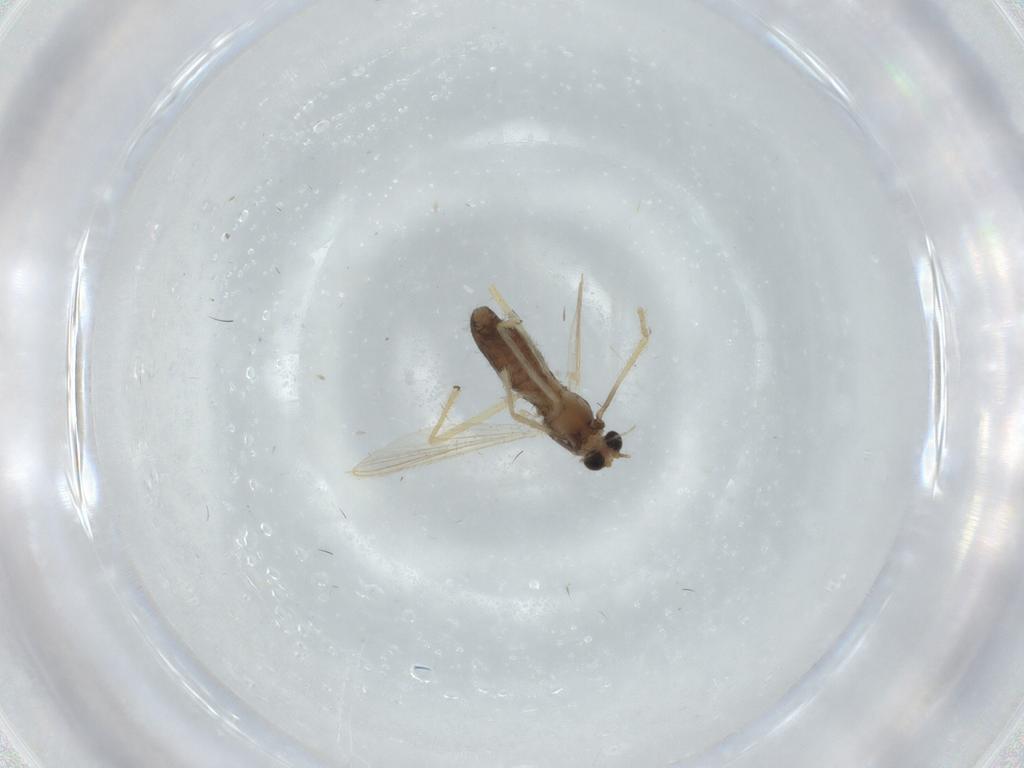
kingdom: Animalia
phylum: Arthropoda
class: Insecta
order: Diptera
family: Chironomidae
